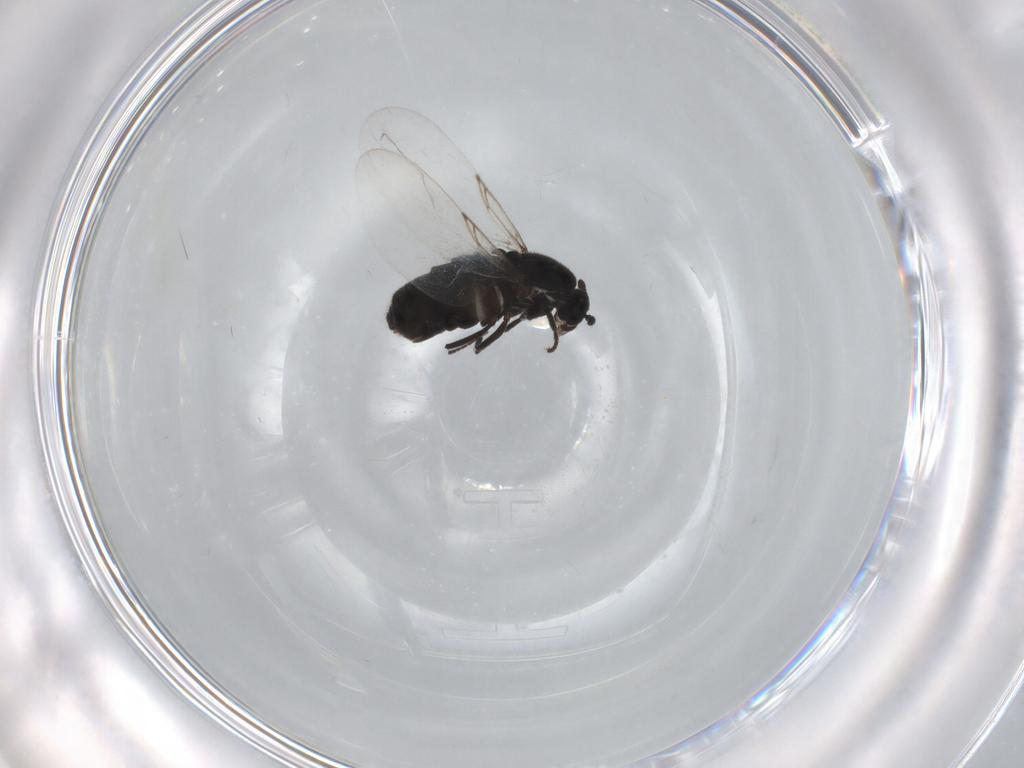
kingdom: Animalia
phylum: Arthropoda
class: Insecta
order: Diptera
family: Scatopsidae
